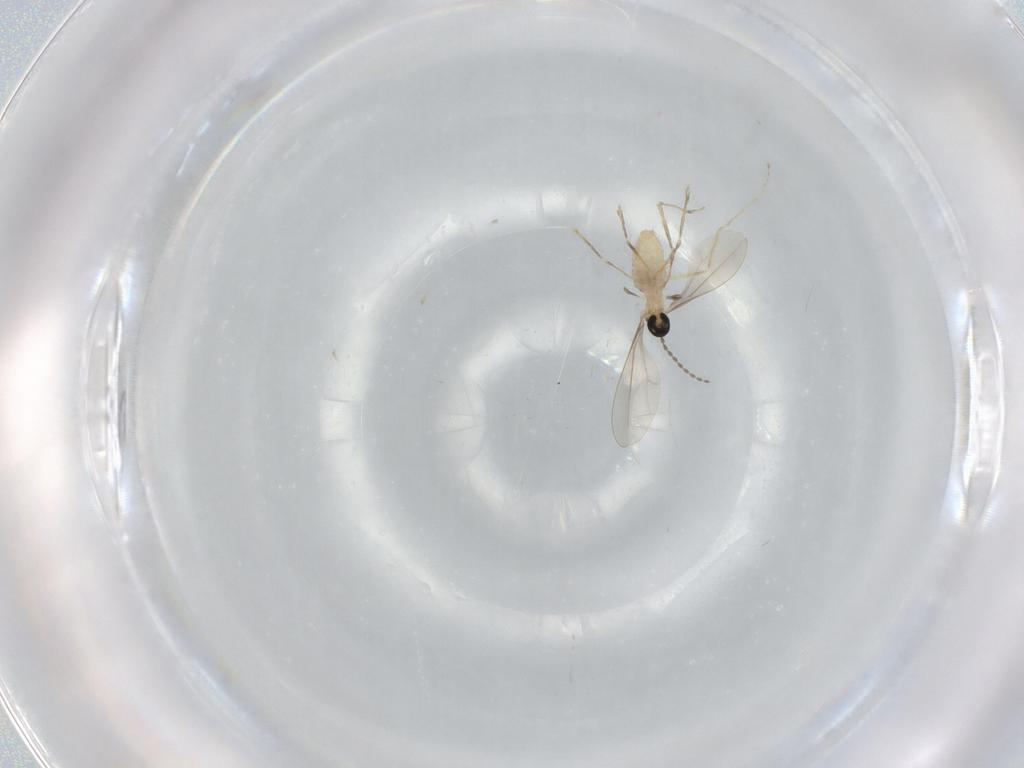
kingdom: Animalia
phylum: Arthropoda
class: Insecta
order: Diptera
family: Cecidomyiidae
